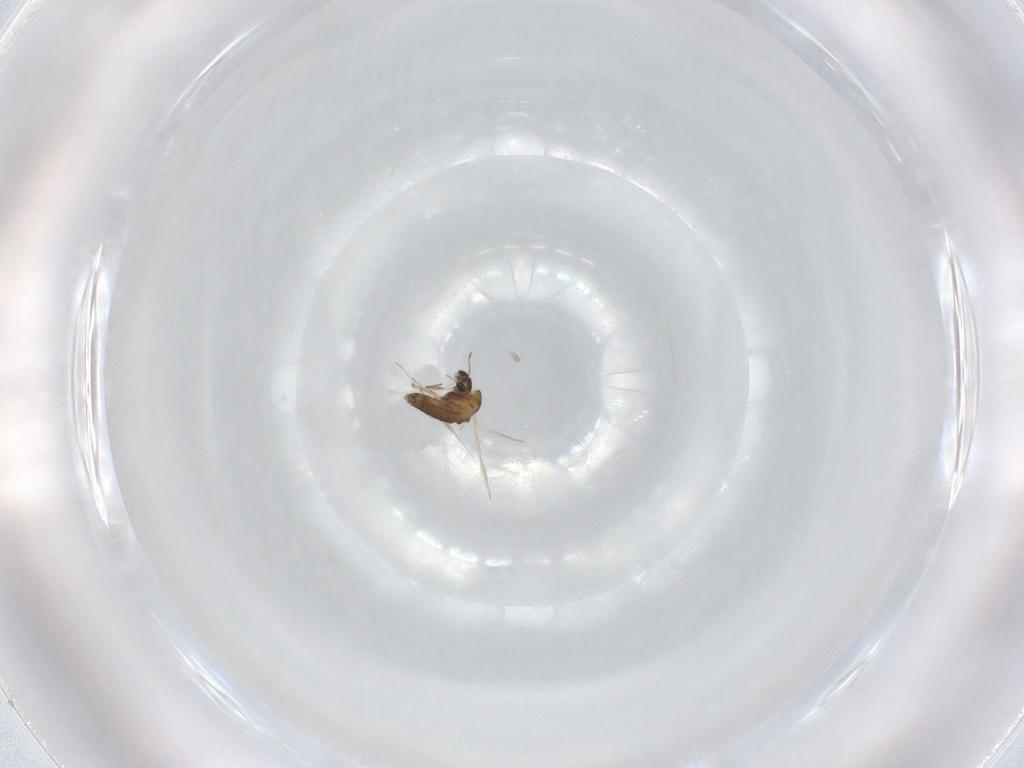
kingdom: Animalia
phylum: Arthropoda
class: Insecta
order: Diptera
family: Chironomidae
